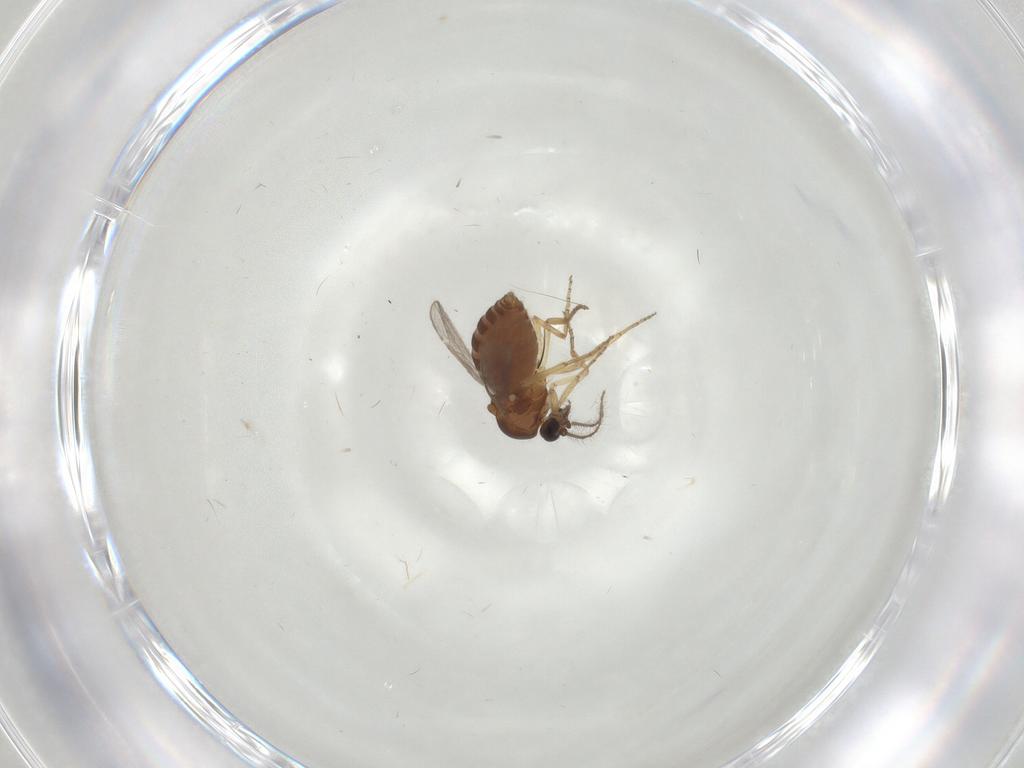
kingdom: Animalia
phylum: Arthropoda
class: Insecta
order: Diptera
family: Ceratopogonidae
